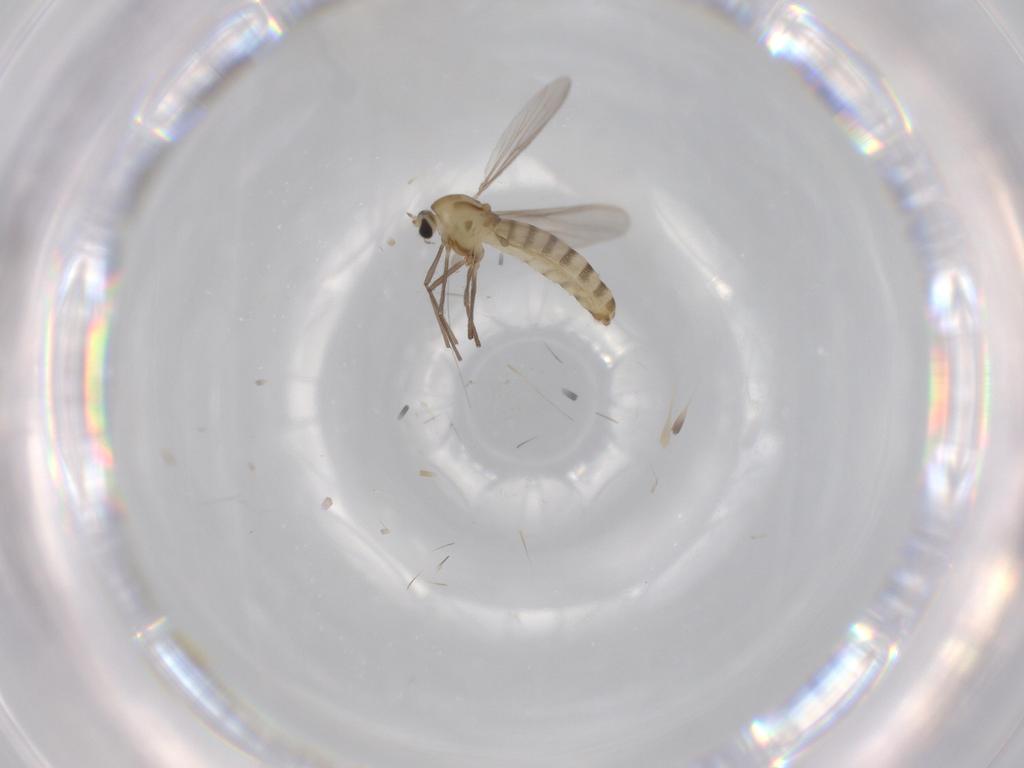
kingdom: Animalia
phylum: Arthropoda
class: Insecta
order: Diptera
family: Chironomidae
